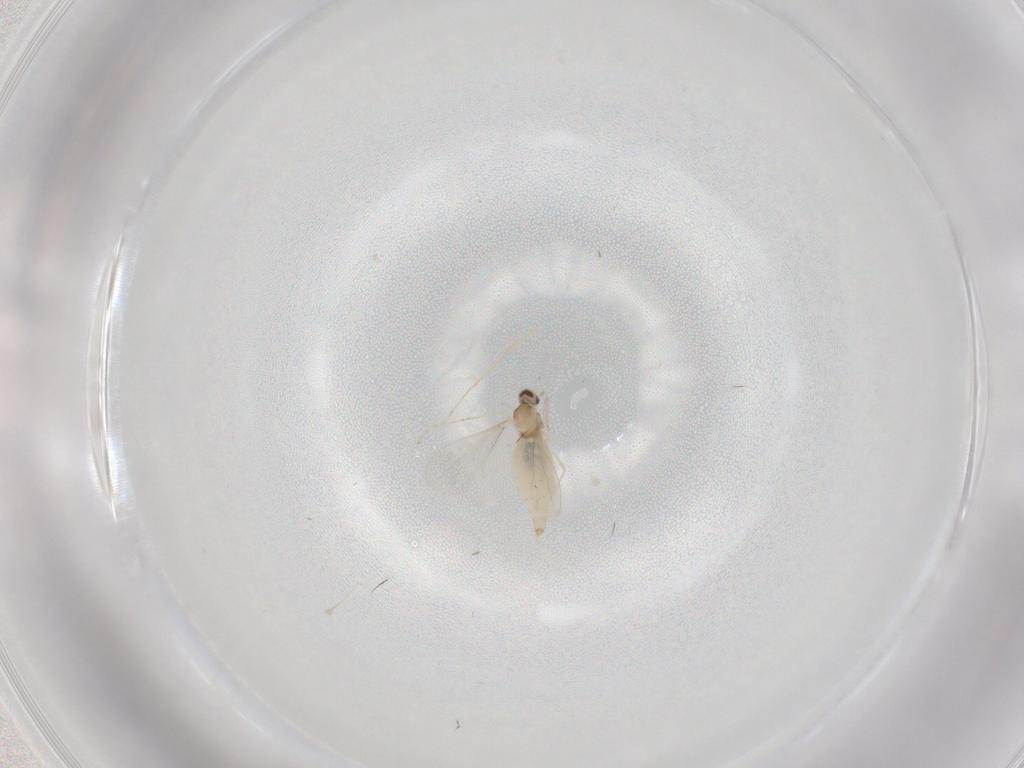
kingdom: Animalia
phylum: Arthropoda
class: Insecta
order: Diptera
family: Cecidomyiidae
